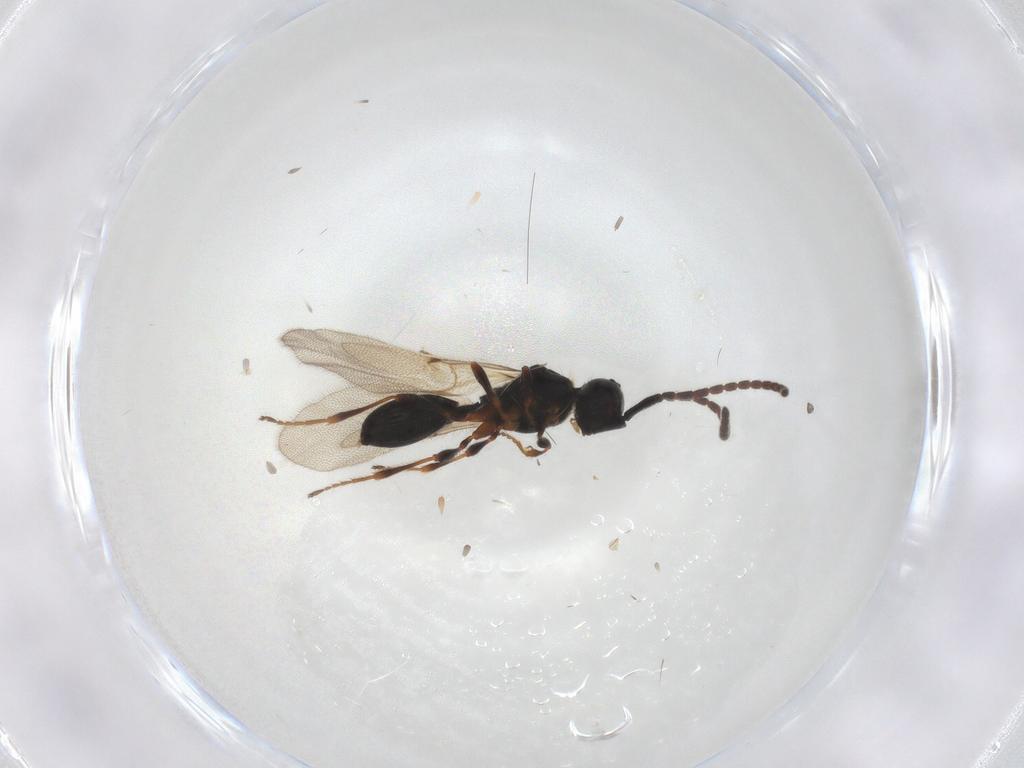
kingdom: Animalia
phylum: Arthropoda
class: Insecta
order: Hymenoptera
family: Diapriidae
